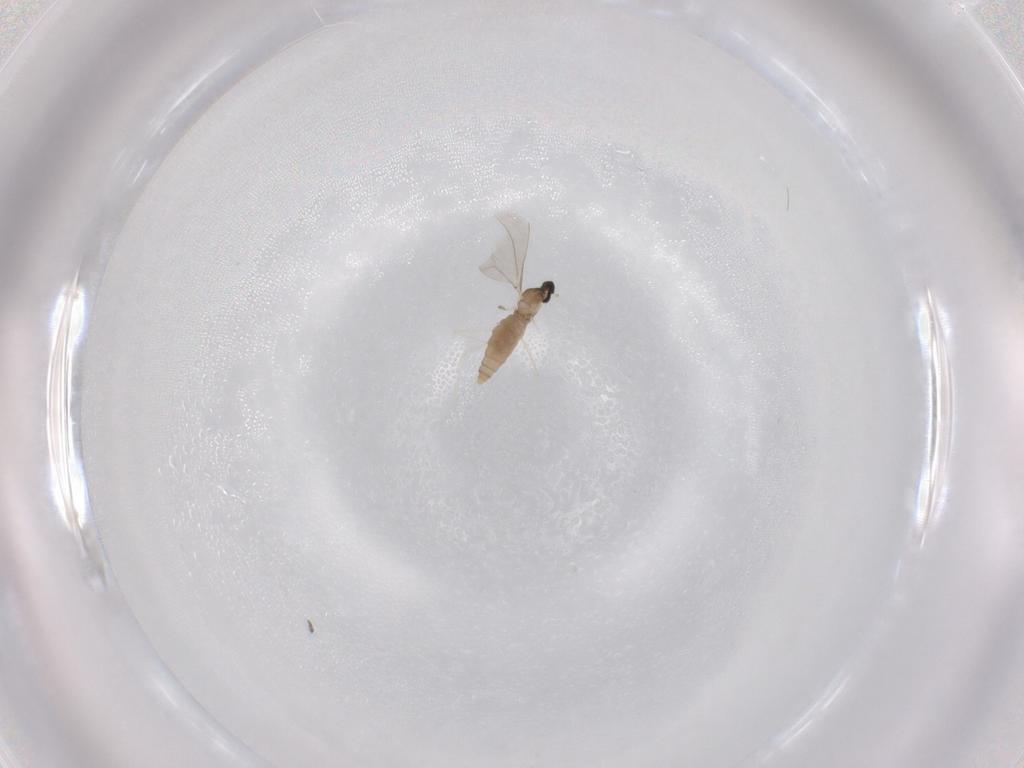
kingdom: Animalia
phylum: Arthropoda
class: Insecta
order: Diptera
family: Cecidomyiidae
